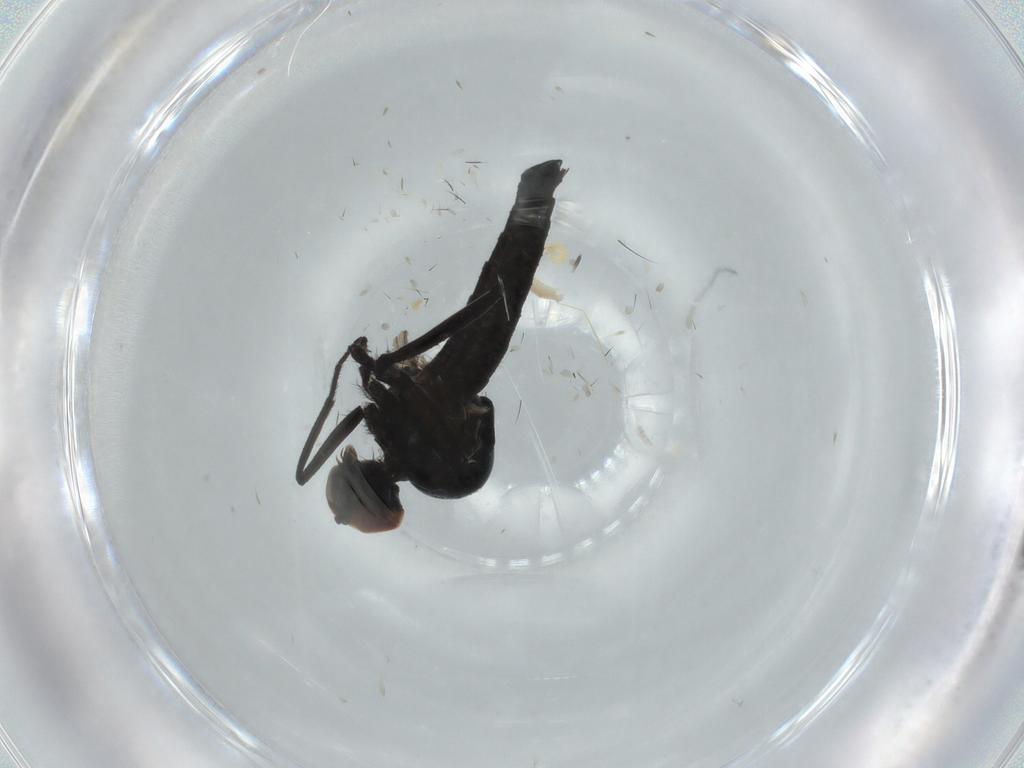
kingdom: Animalia
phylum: Arthropoda
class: Insecta
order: Diptera
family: Hybotidae
